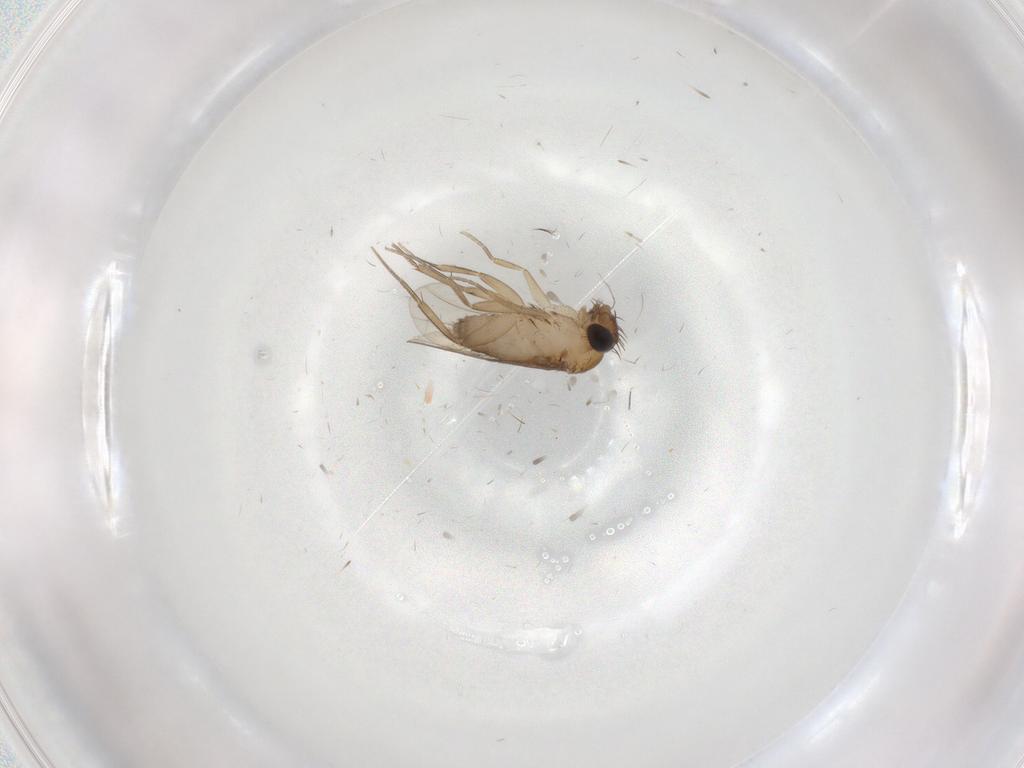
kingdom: Animalia
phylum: Arthropoda
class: Insecta
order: Diptera
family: Phoridae
